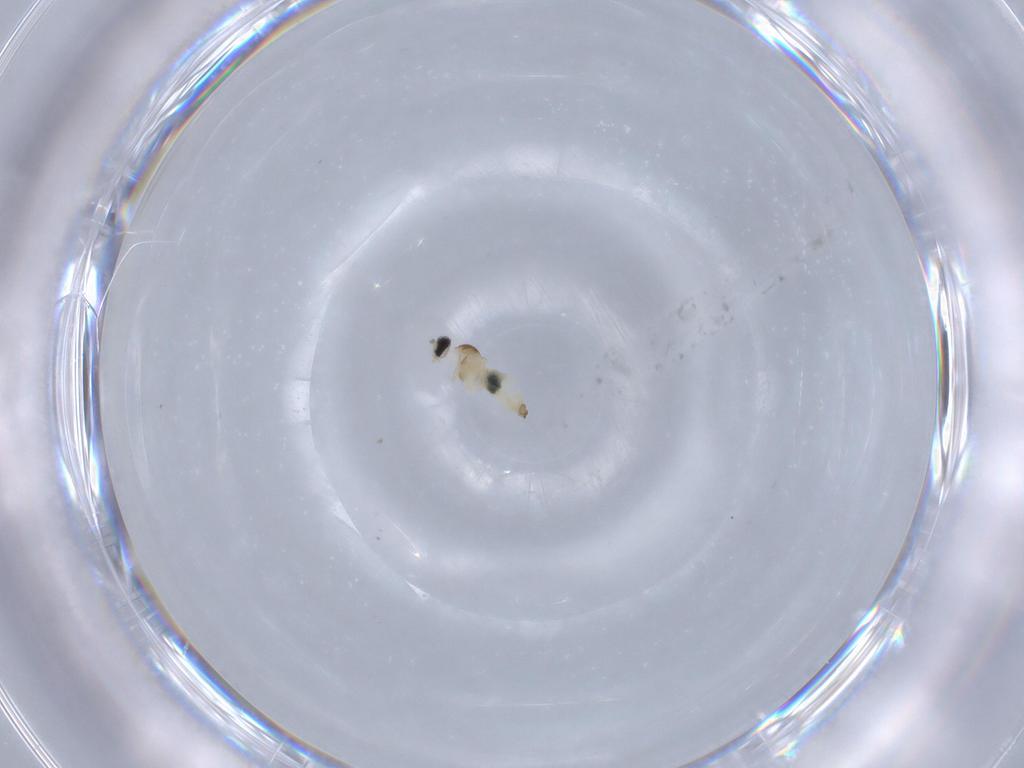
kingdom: Animalia
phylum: Arthropoda
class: Insecta
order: Diptera
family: Cecidomyiidae
